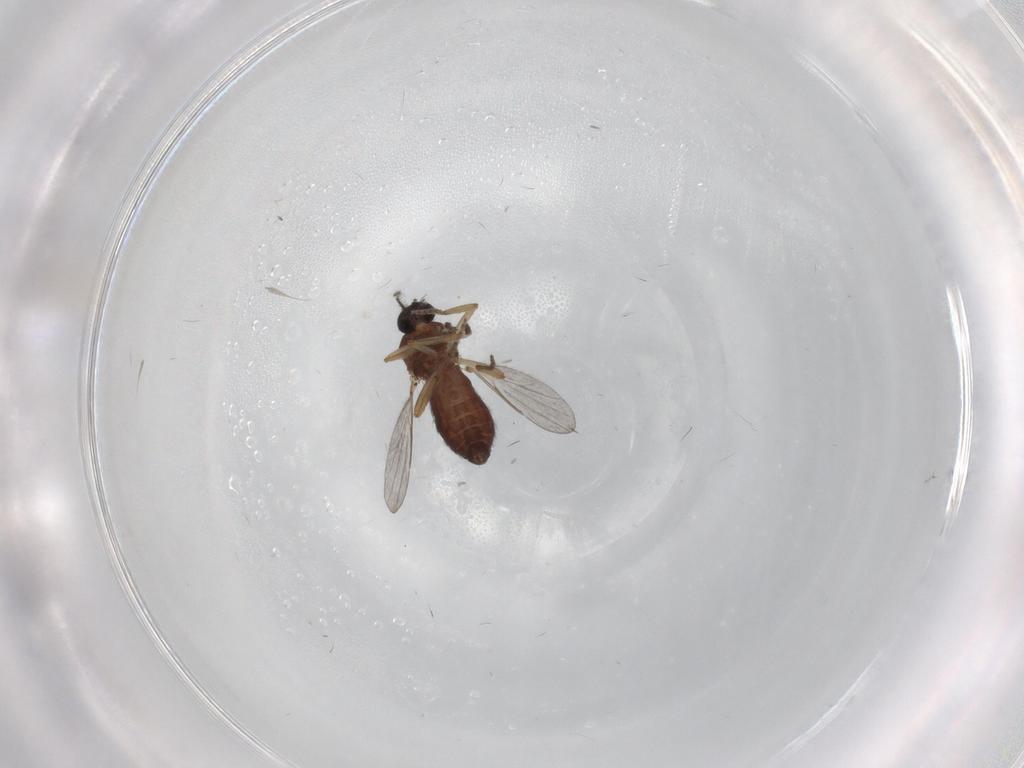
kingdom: Animalia
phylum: Arthropoda
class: Insecta
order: Diptera
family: Ceratopogonidae
